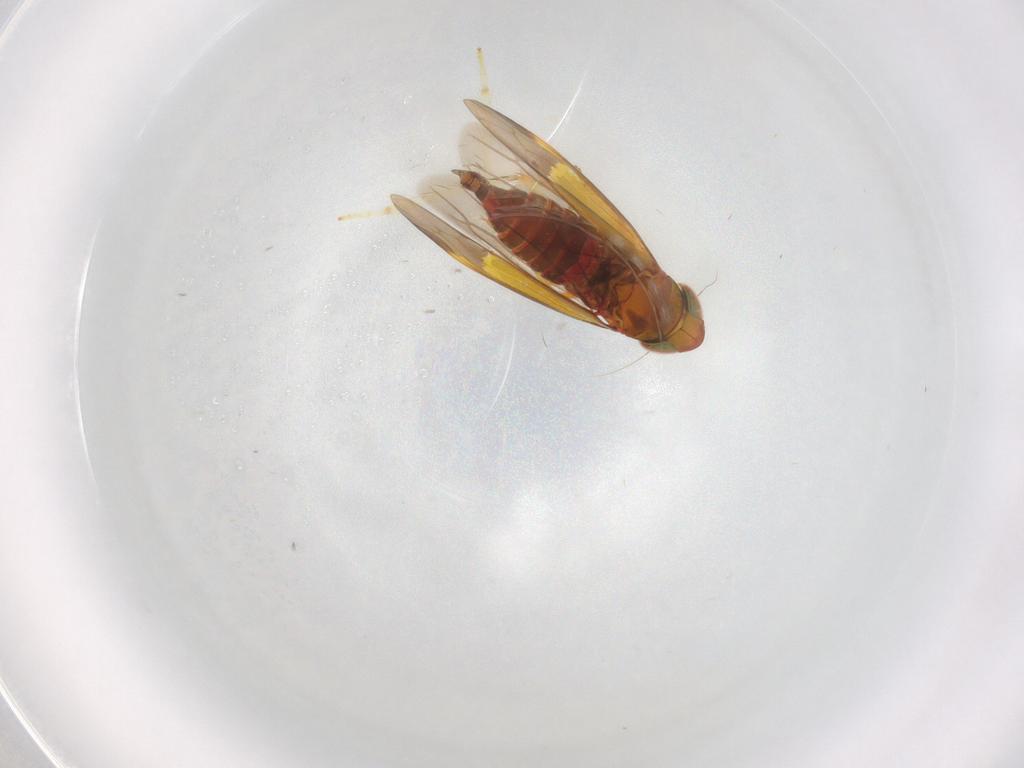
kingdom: Animalia
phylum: Arthropoda
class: Insecta
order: Hemiptera
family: Cicadellidae
